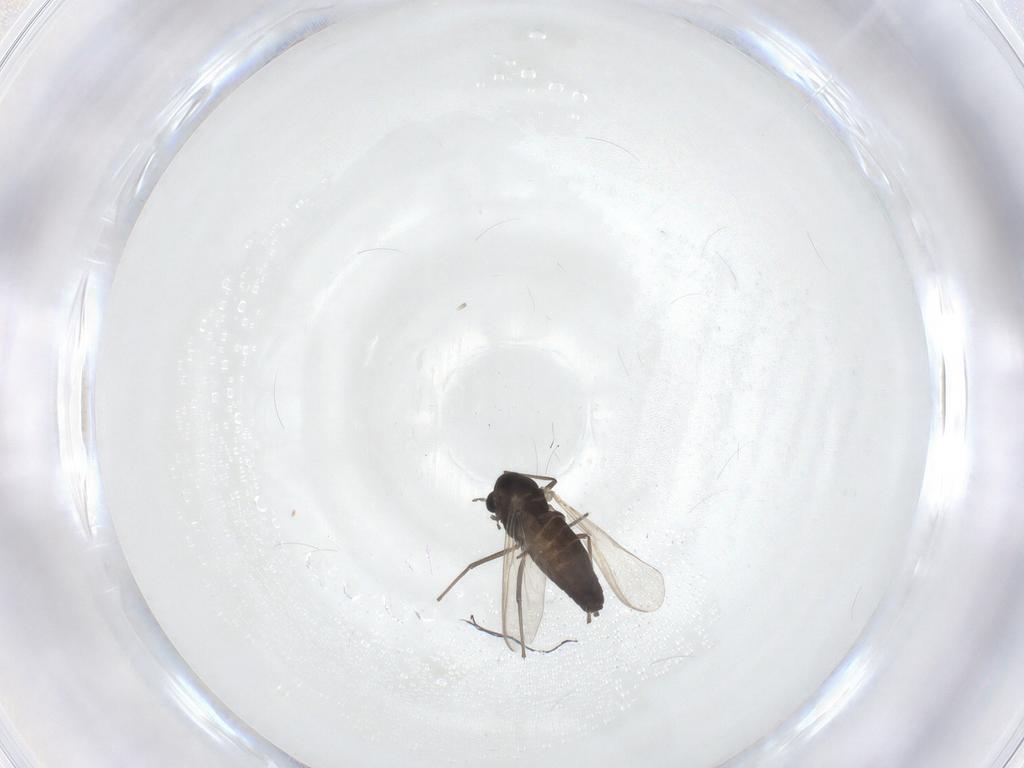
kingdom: Animalia
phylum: Arthropoda
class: Insecta
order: Diptera
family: Sciaridae
